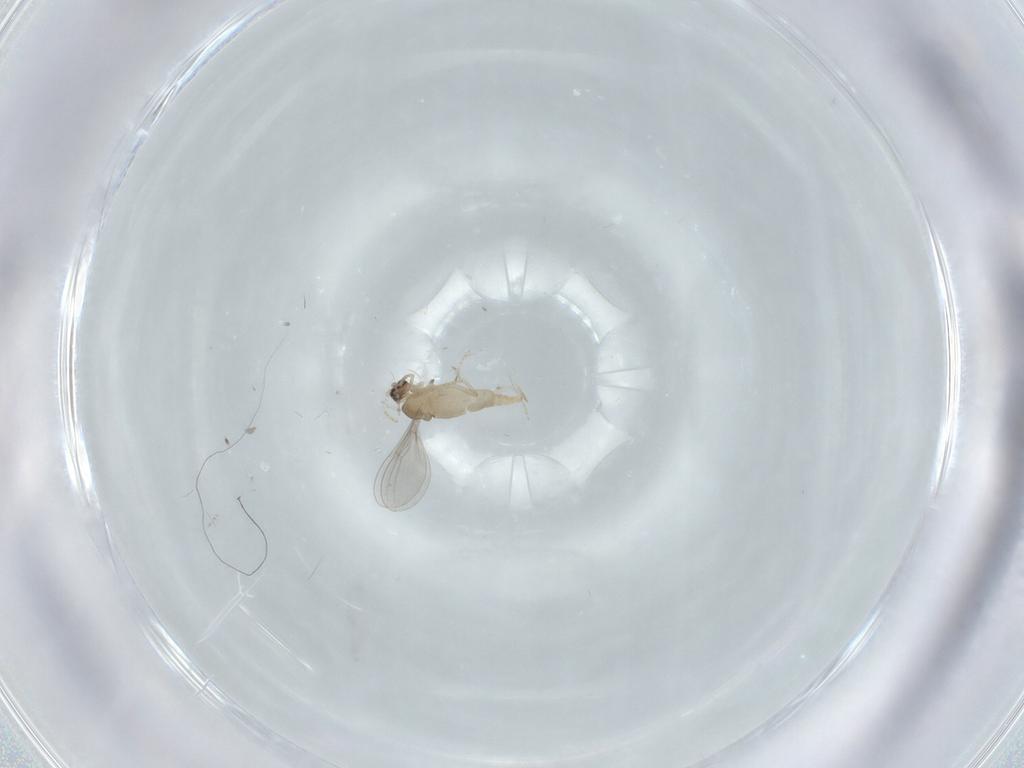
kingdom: Animalia
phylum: Arthropoda
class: Insecta
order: Diptera
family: Cecidomyiidae
